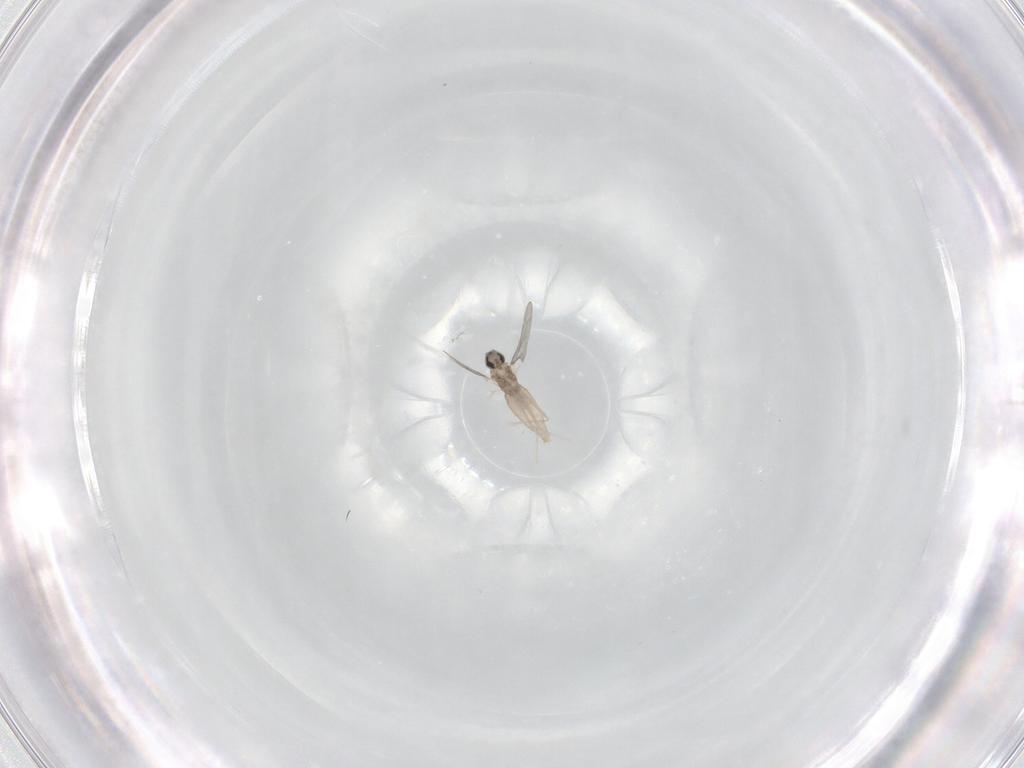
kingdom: Animalia
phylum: Arthropoda
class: Insecta
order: Diptera
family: Cecidomyiidae
